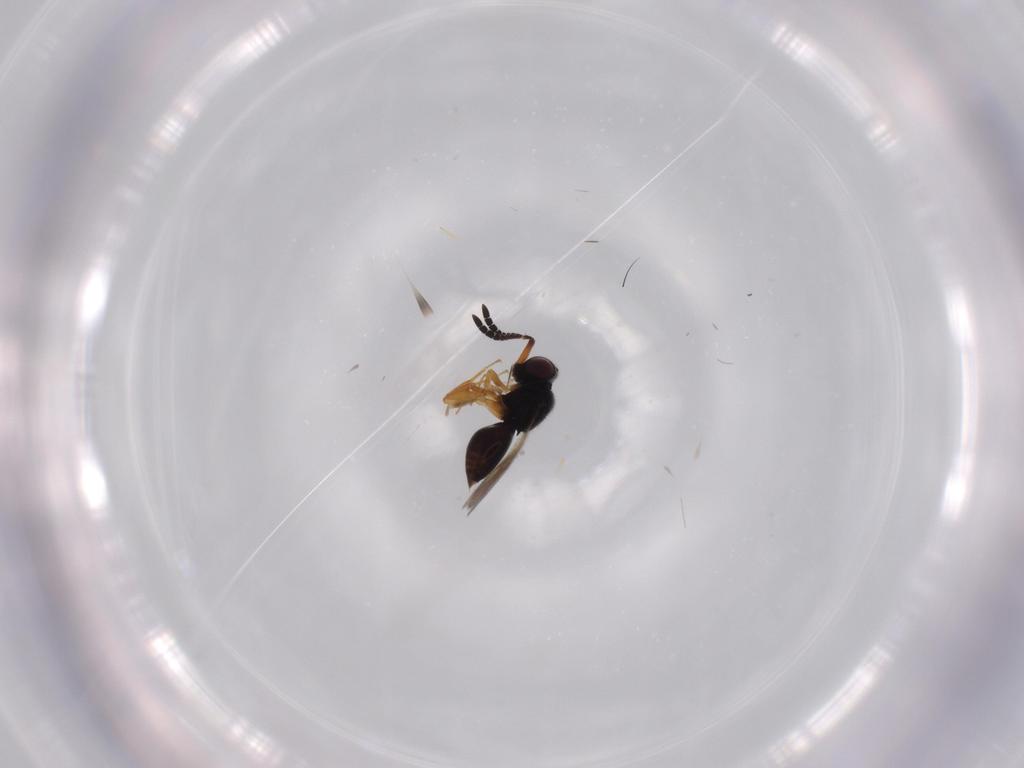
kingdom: Animalia
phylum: Arthropoda
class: Insecta
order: Hymenoptera
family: Ceraphronidae
